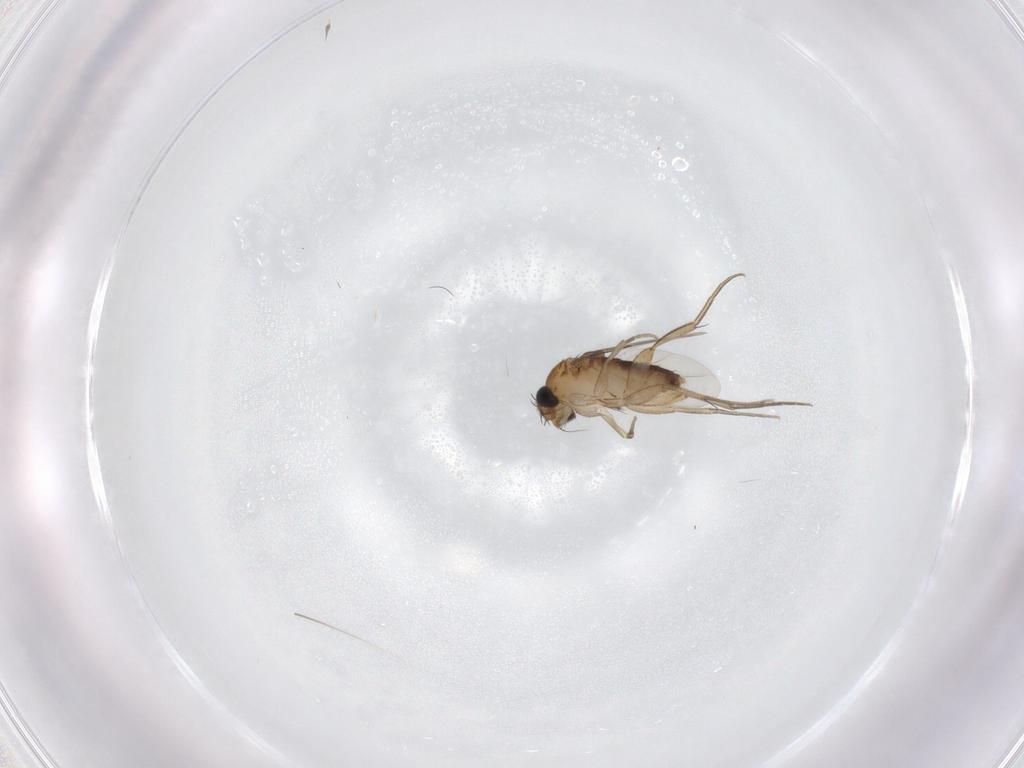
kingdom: Animalia
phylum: Arthropoda
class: Insecta
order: Diptera
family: Phoridae
